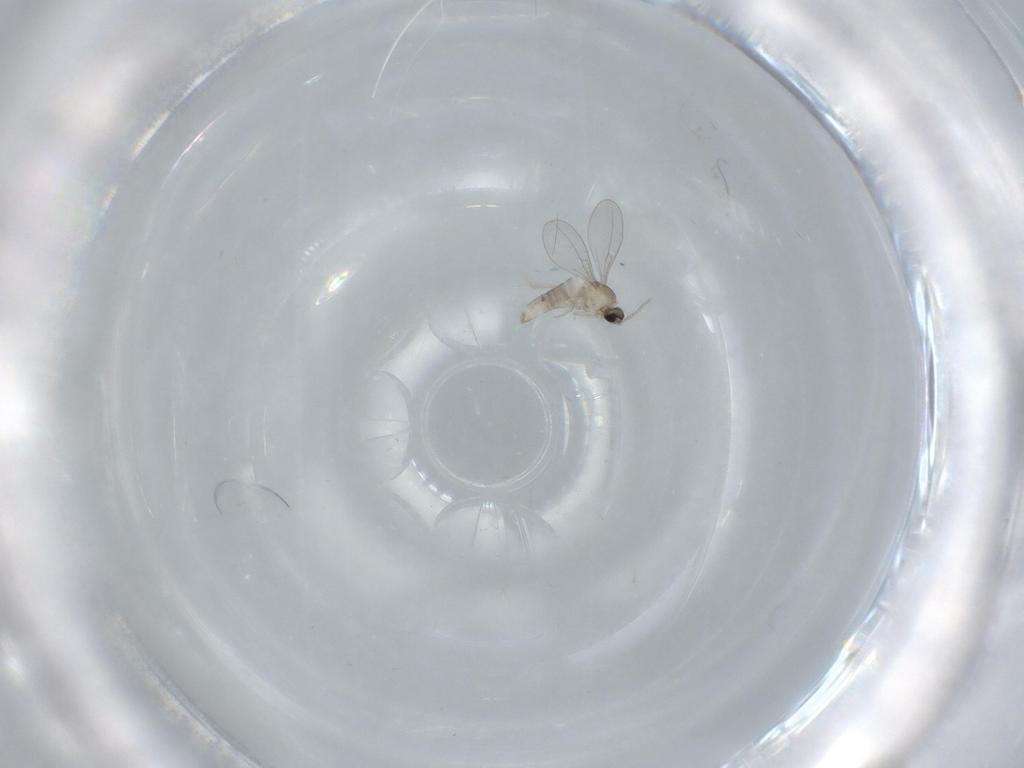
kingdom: Animalia
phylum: Arthropoda
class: Insecta
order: Diptera
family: Cecidomyiidae
